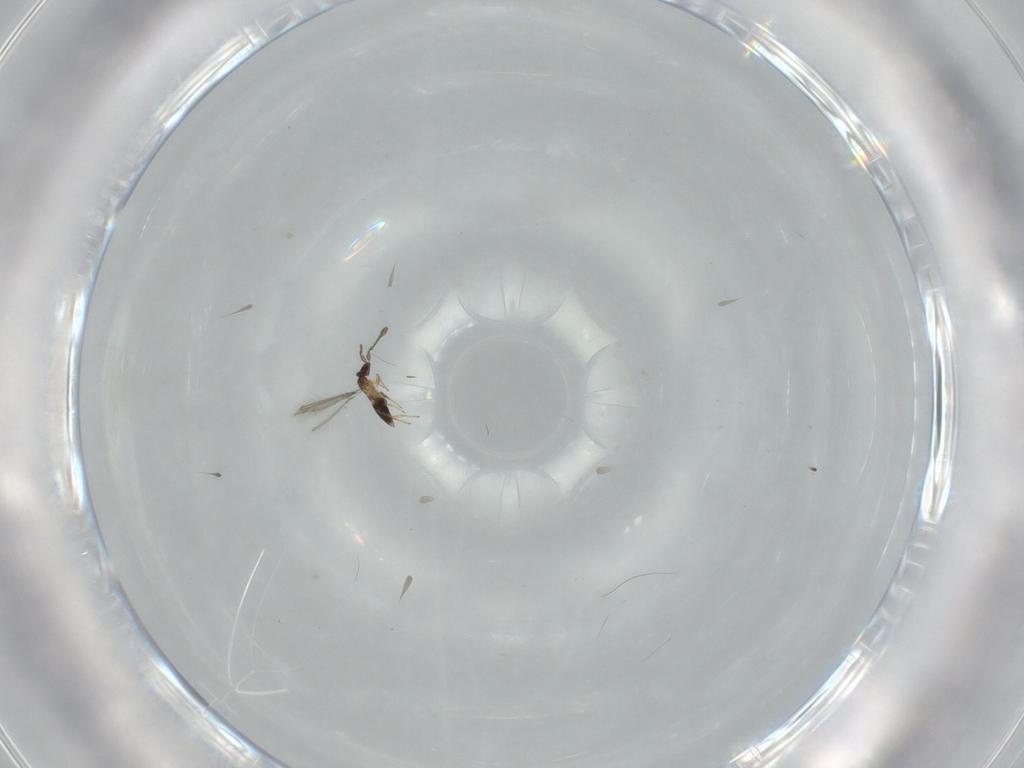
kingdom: Animalia
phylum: Arthropoda
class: Insecta
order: Hymenoptera
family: Mymaridae
